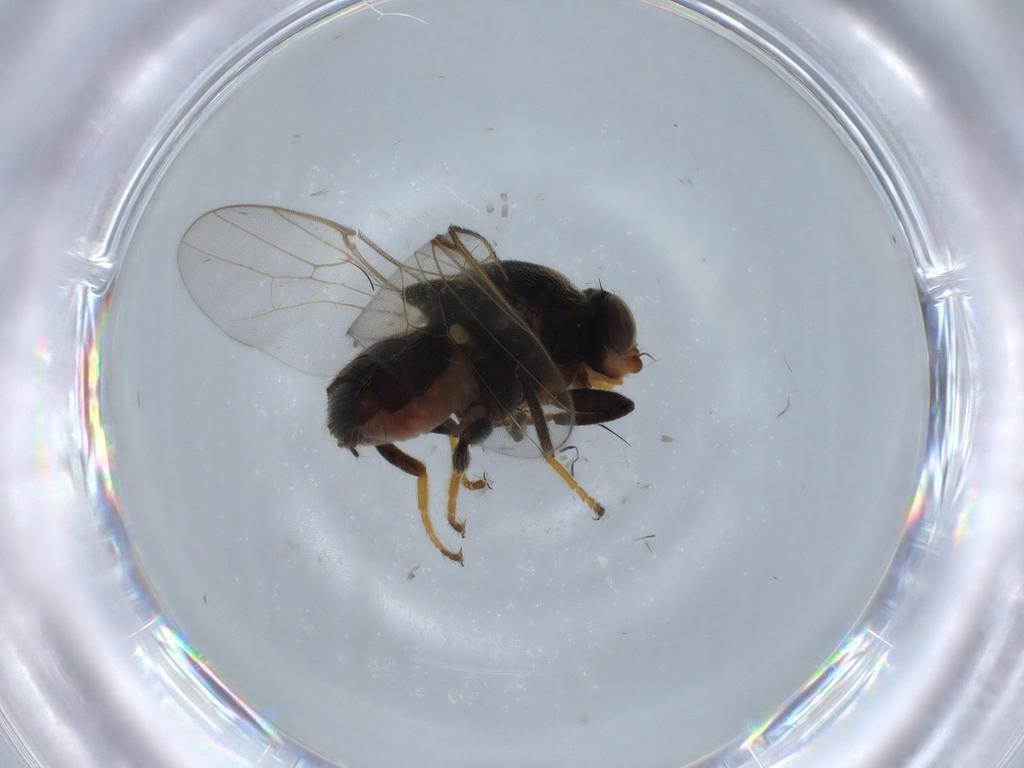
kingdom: Animalia
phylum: Arthropoda
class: Insecta
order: Diptera
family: Chloropidae
